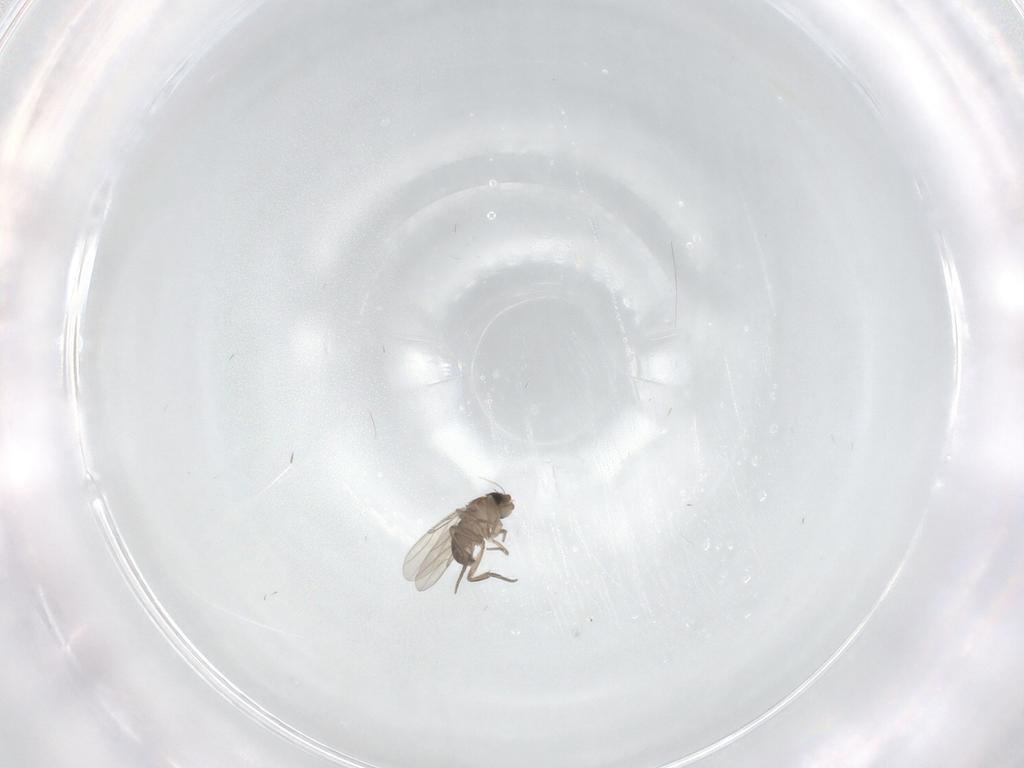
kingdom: Animalia
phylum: Arthropoda
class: Insecta
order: Diptera
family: Phoridae
